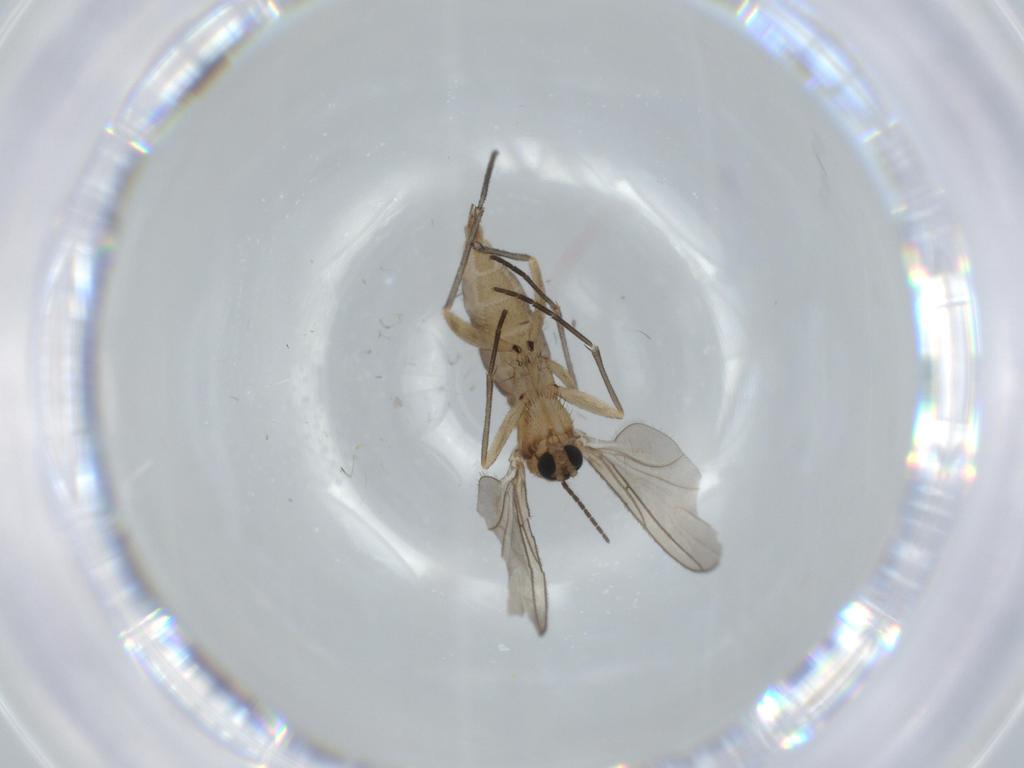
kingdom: Animalia
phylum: Arthropoda
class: Insecta
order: Diptera
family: Sciaridae
